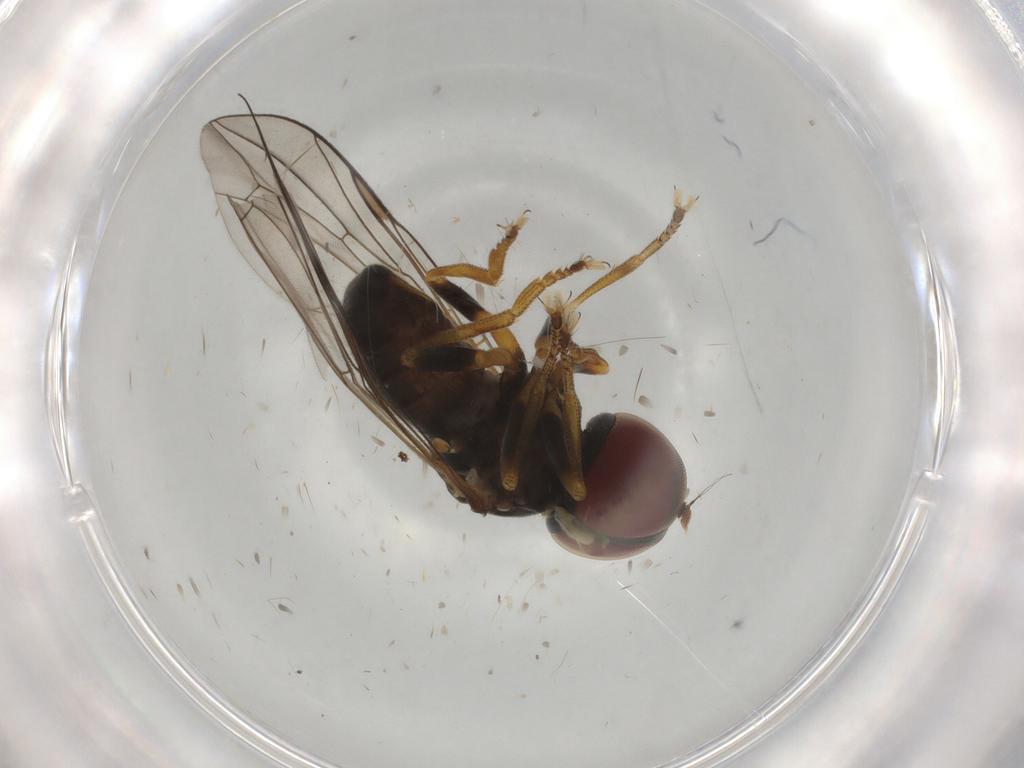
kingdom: Animalia
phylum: Arthropoda
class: Insecta
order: Diptera
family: Pipunculidae
